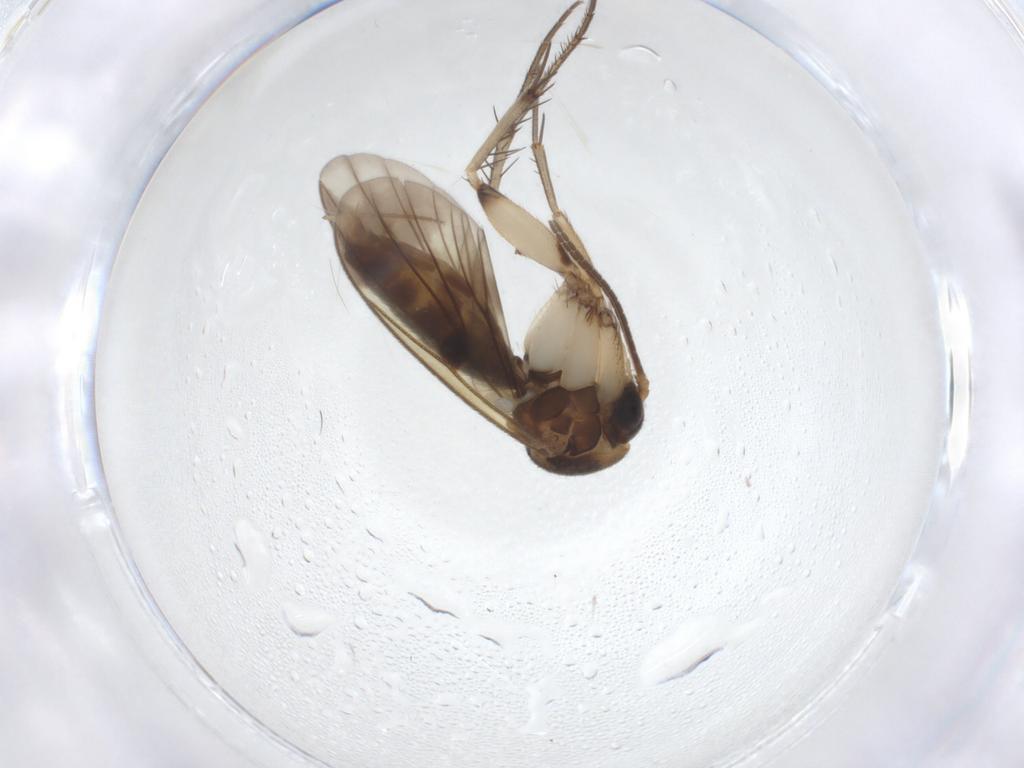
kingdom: Animalia
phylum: Arthropoda
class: Insecta
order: Diptera
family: Chironomidae
